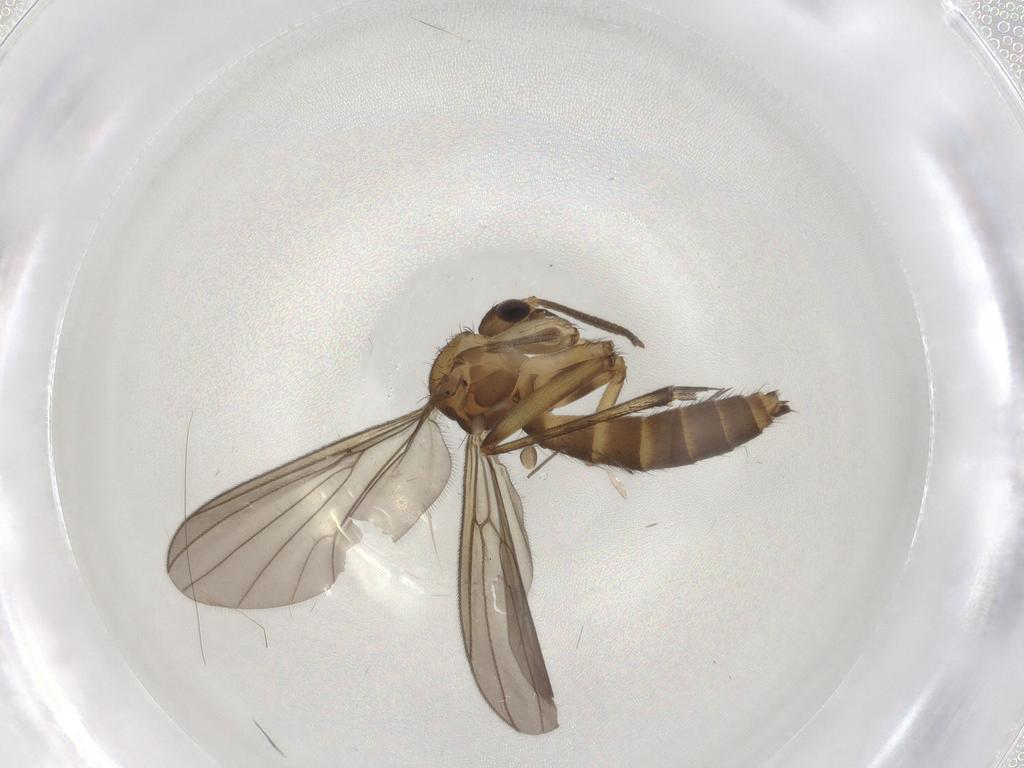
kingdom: Animalia
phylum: Arthropoda
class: Insecta
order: Diptera
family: Mycetophilidae
